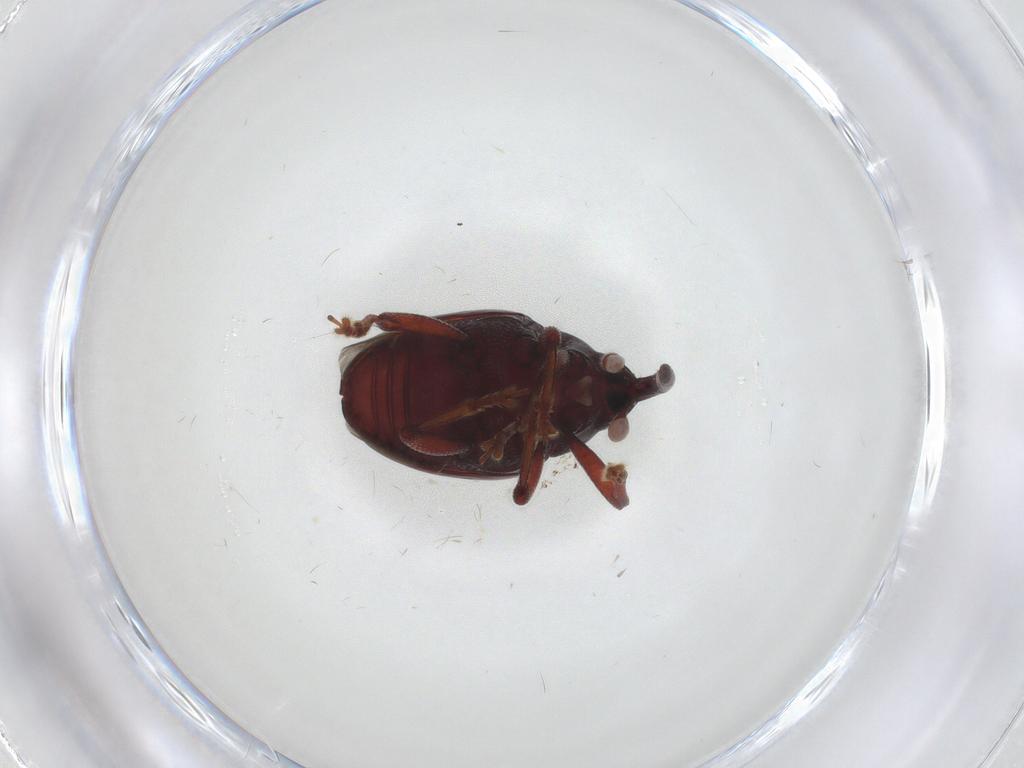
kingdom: Animalia
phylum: Arthropoda
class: Insecta
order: Coleoptera
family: Curculionidae
